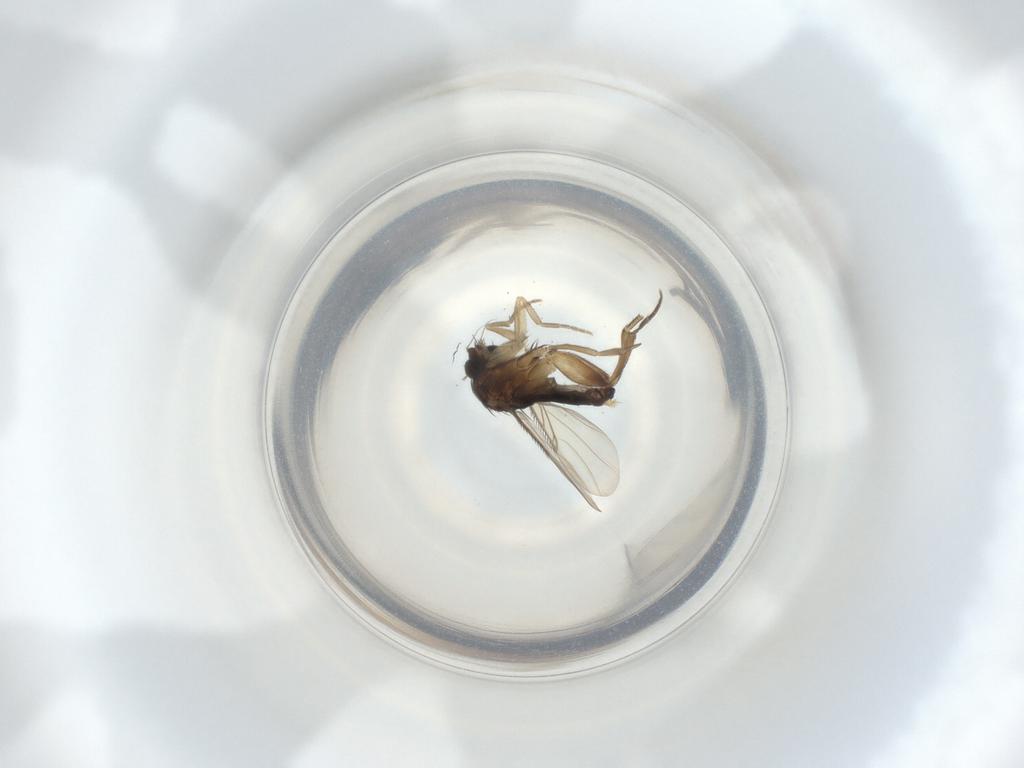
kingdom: Animalia
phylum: Arthropoda
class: Insecta
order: Diptera
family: Phoridae
